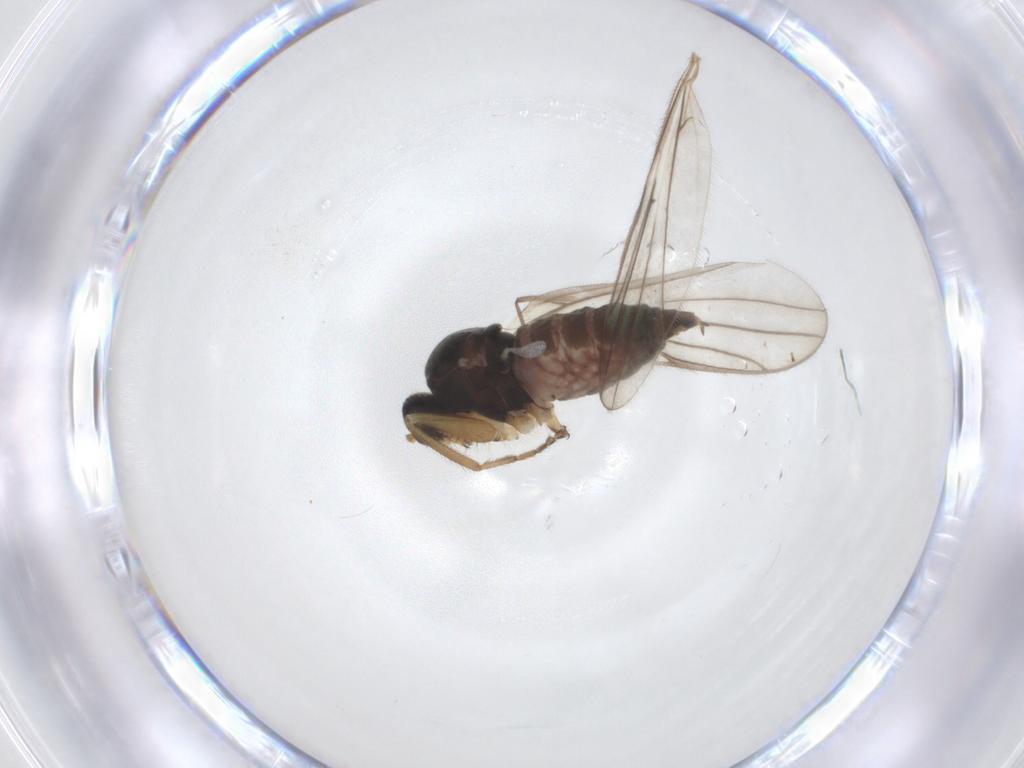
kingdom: Animalia
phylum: Arthropoda
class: Insecta
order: Diptera
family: Hybotidae
